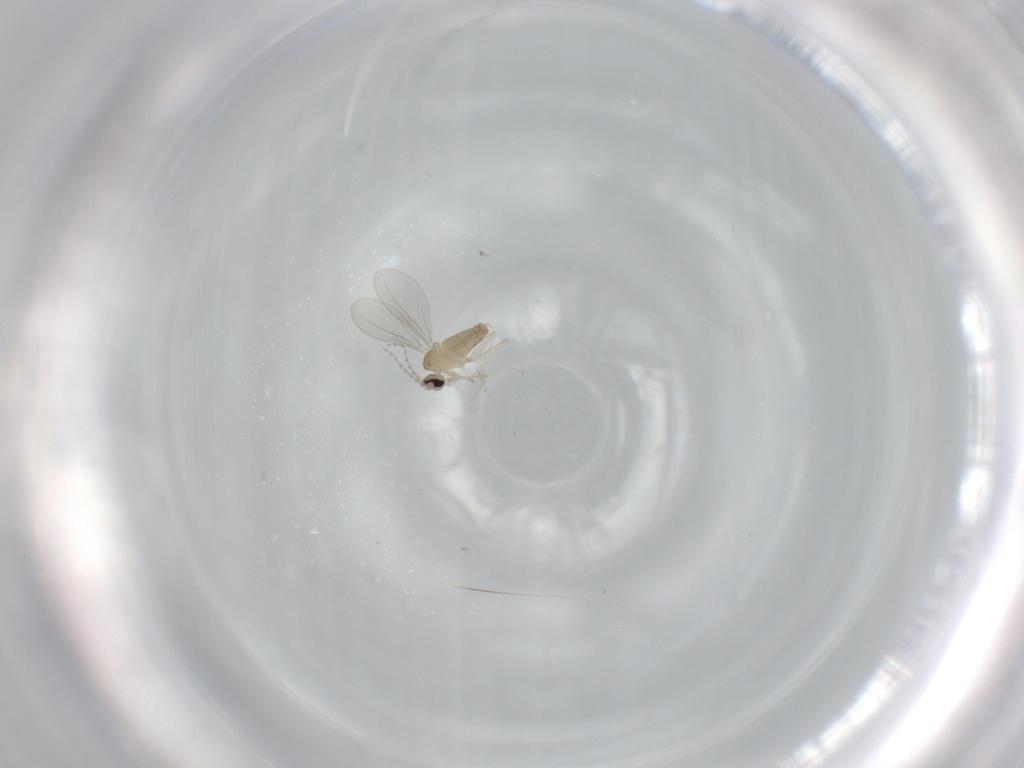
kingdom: Animalia
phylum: Arthropoda
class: Insecta
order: Diptera
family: Cecidomyiidae
